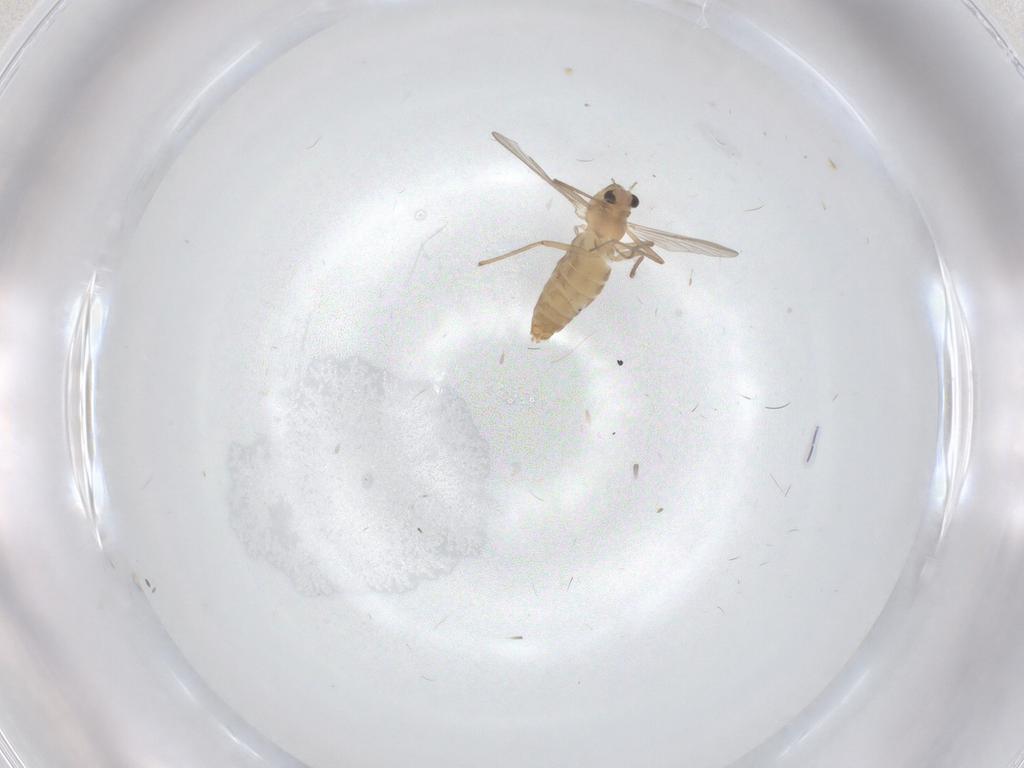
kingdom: Animalia
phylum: Arthropoda
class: Insecta
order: Diptera
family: Chironomidae
